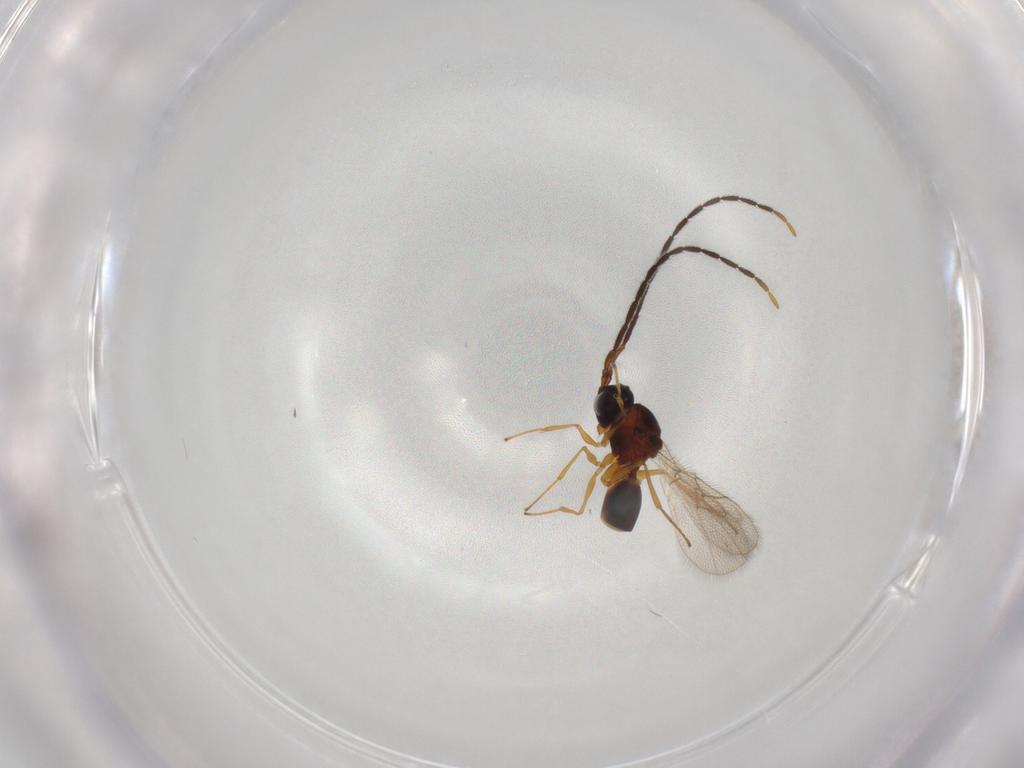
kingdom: Animalia
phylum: Arthropoda
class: Insecta
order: Hymenoptera
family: Figitidae
